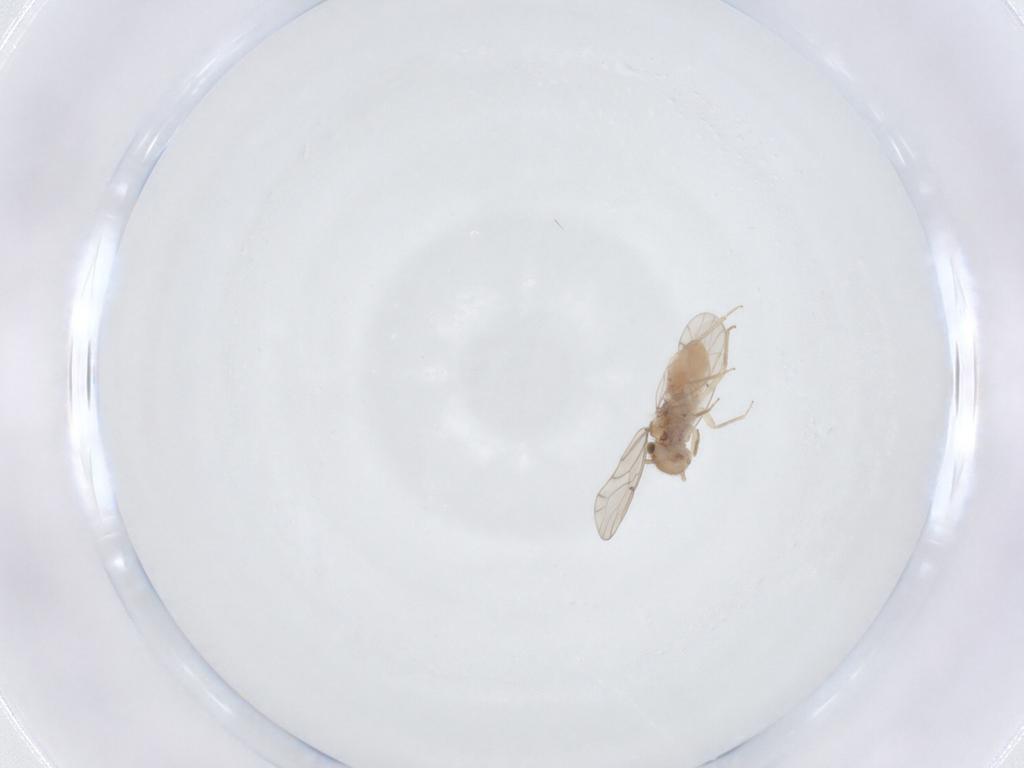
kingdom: Animalia
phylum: Arthropoda
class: Insecta
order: Psocodea
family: Ectopsocidae
